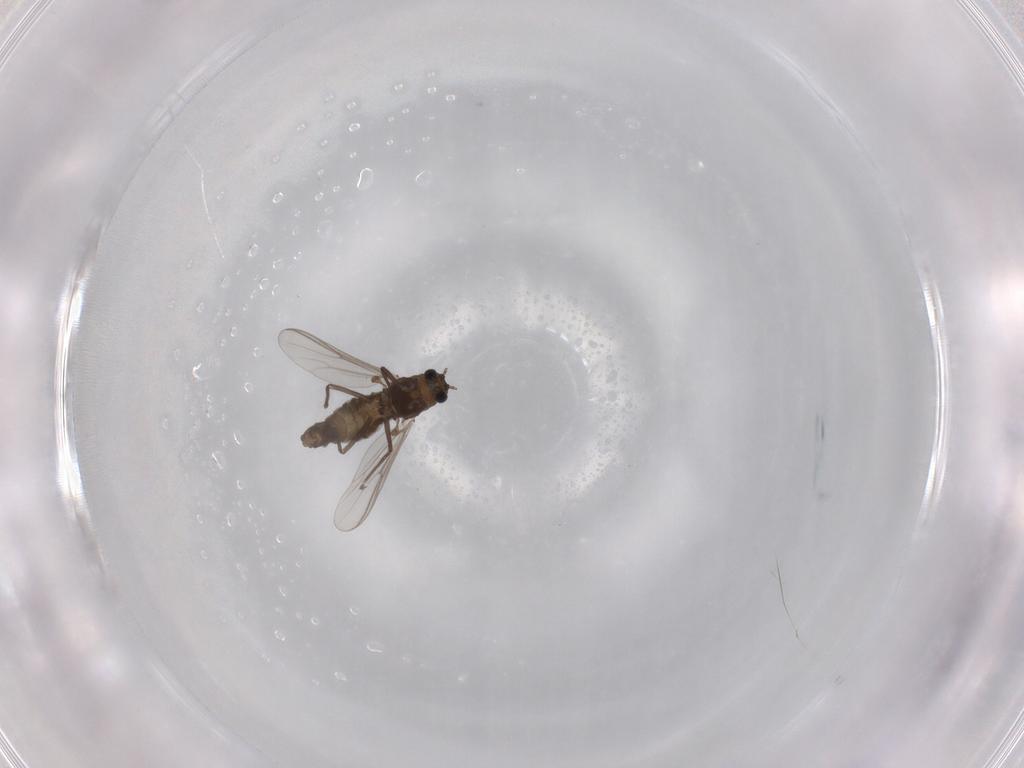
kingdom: Animalia
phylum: Arthropoda
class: Insecta
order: Diptera
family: Chironomidae
